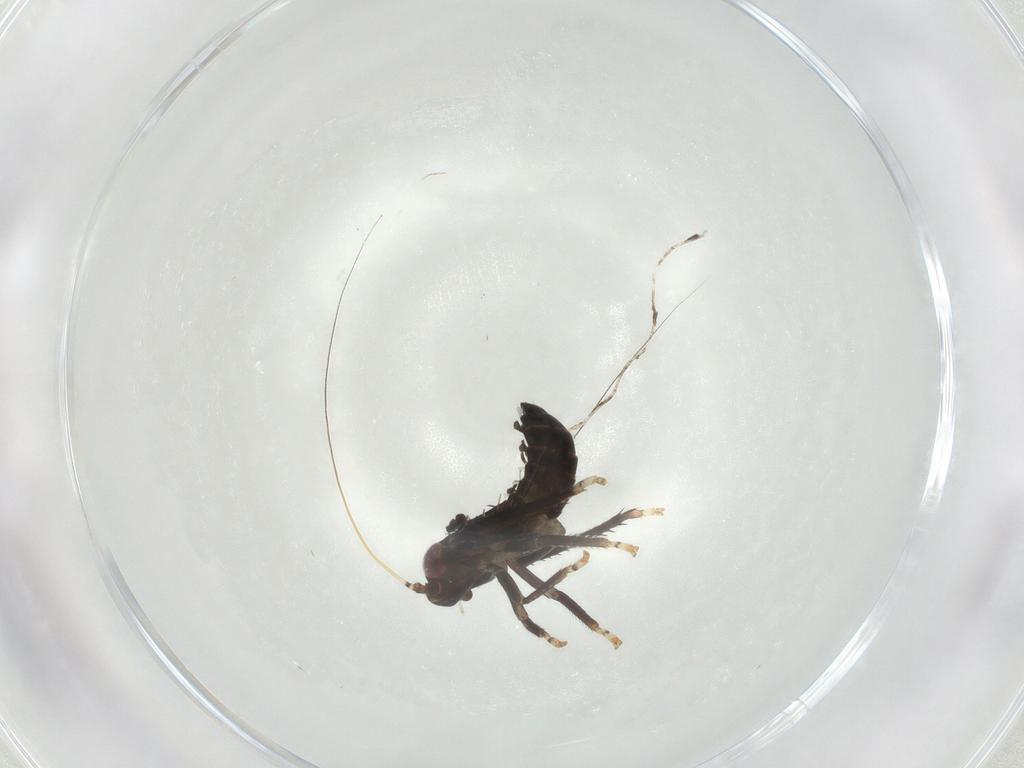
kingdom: Animalia
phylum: Arthropoda
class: Insecta
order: Hemiptera
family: Cicadellidae
